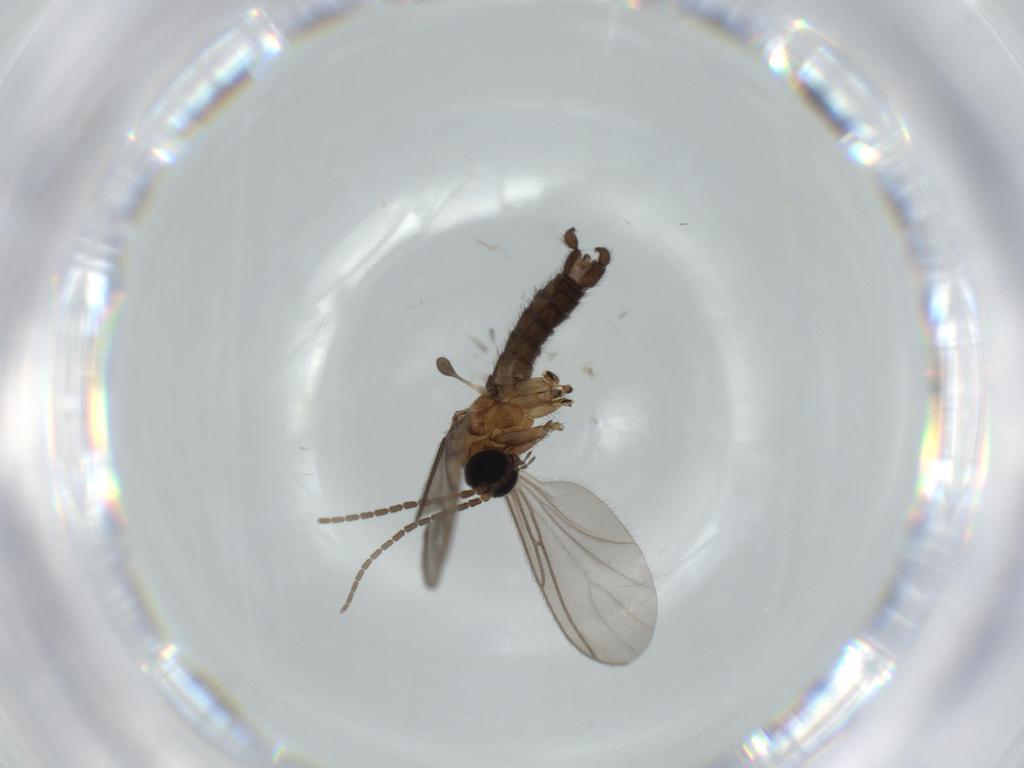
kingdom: Animalia
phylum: Arthropoda
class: Insecta
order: Diptera
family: Sciaridae
